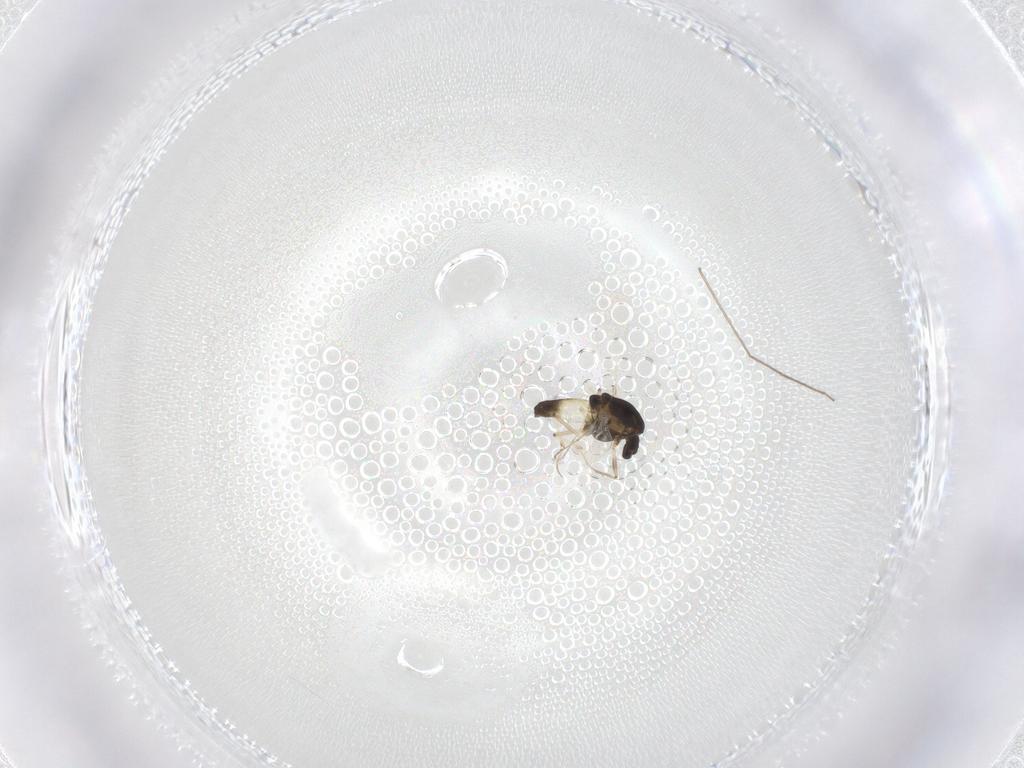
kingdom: Animalia
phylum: Arthropoda
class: Insecta
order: Diptera
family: Chironomidae
